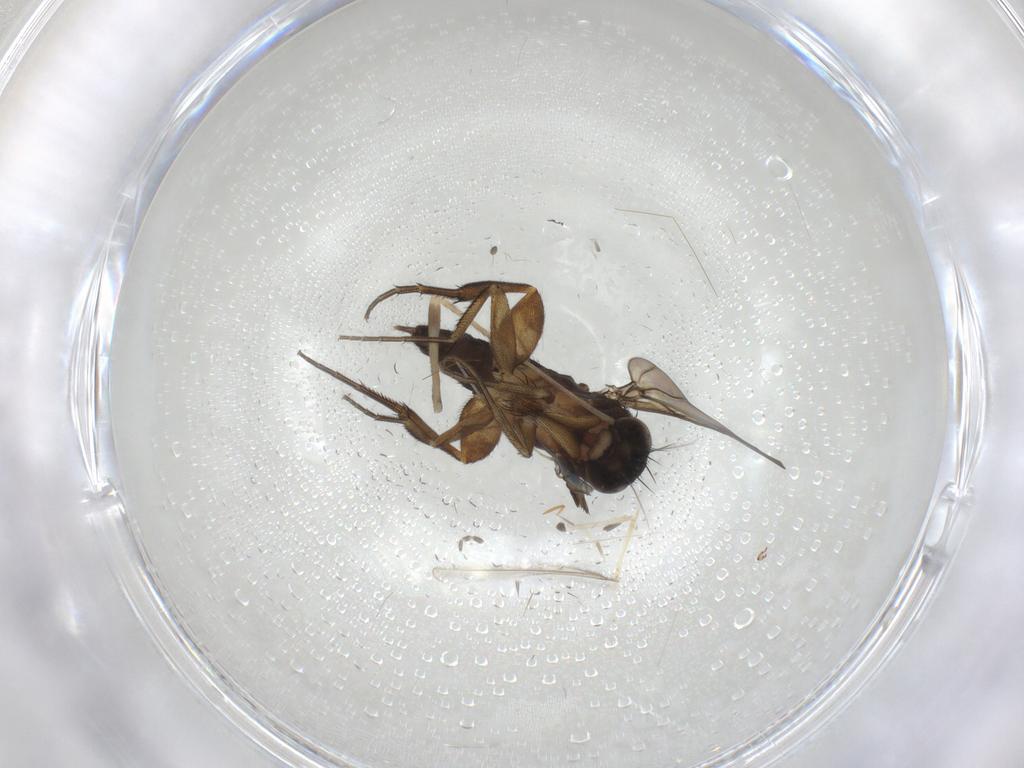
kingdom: Animalia
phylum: Arthropoda
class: Insecta
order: Diptera
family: Limoniidae
